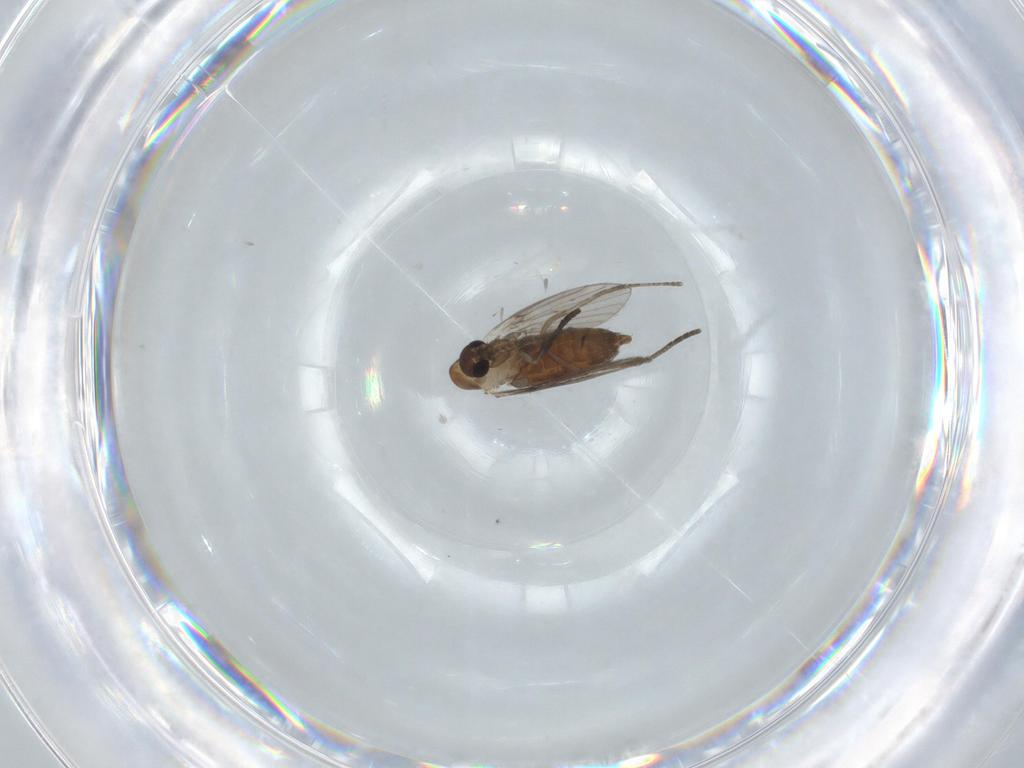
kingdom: Animalia
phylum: Arthropoda
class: Insecta
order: Diptera
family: Psychodidae
